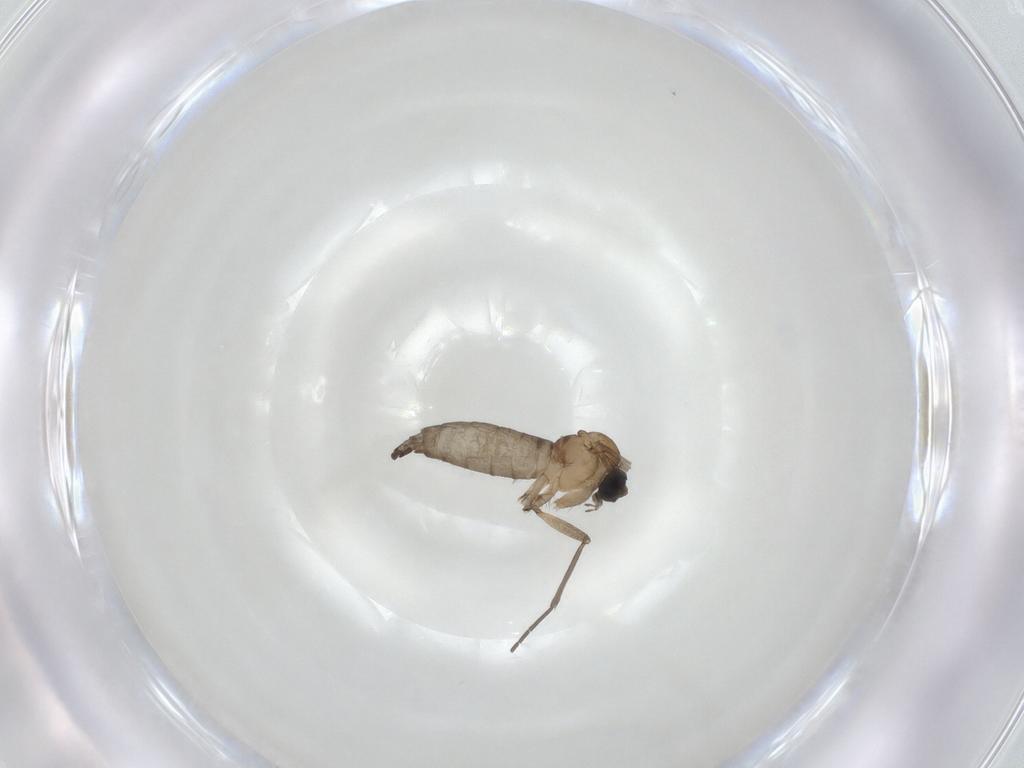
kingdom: Animalia
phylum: Arthropoda
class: Insecta
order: Diptera
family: Sciaridae
